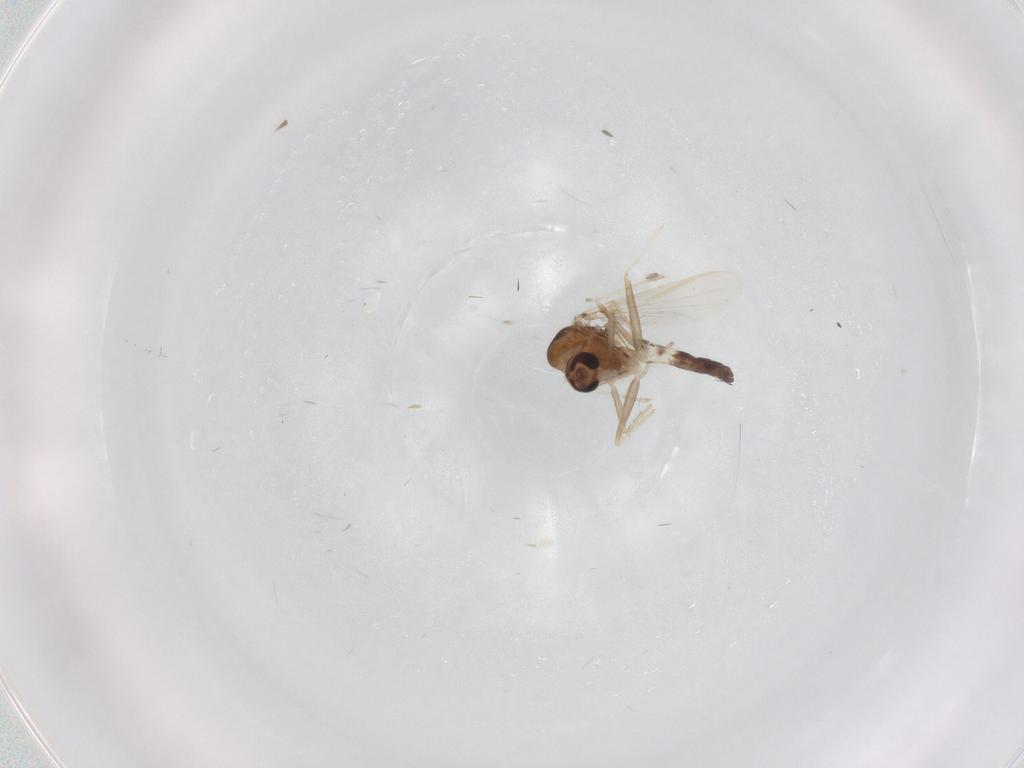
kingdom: Animalia
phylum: Arthropoda
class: Insecta
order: Diptera
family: Chironomidae
